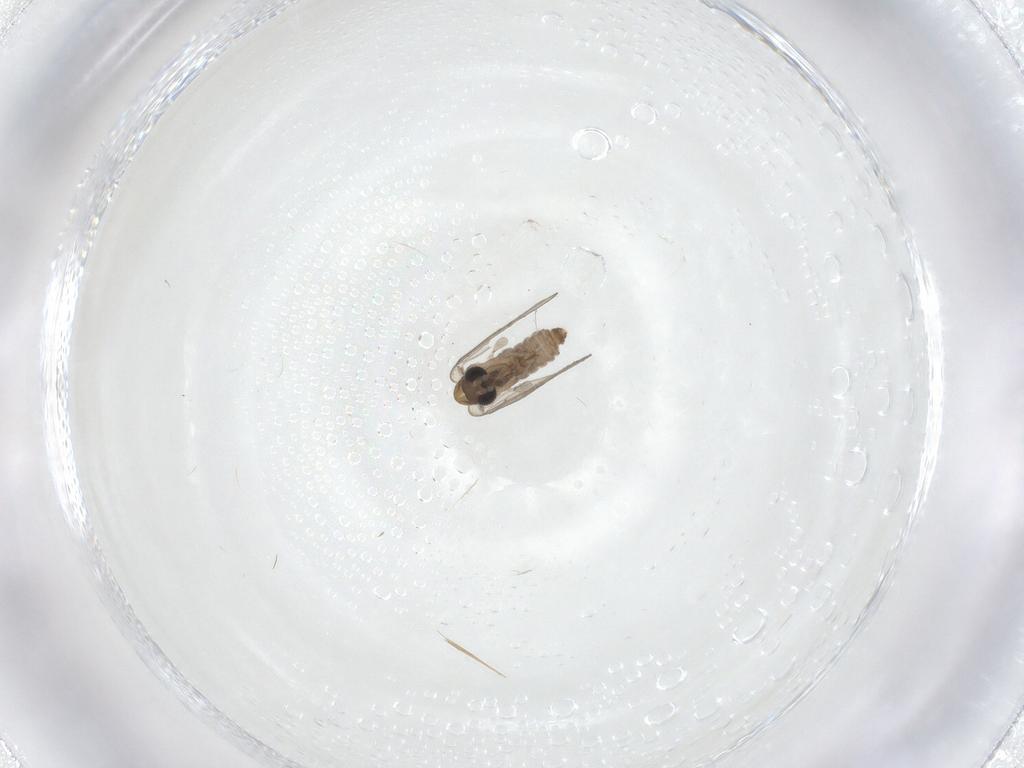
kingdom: Animalia
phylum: Arthropoda
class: Insecta
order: Diptera
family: Psychodidae
